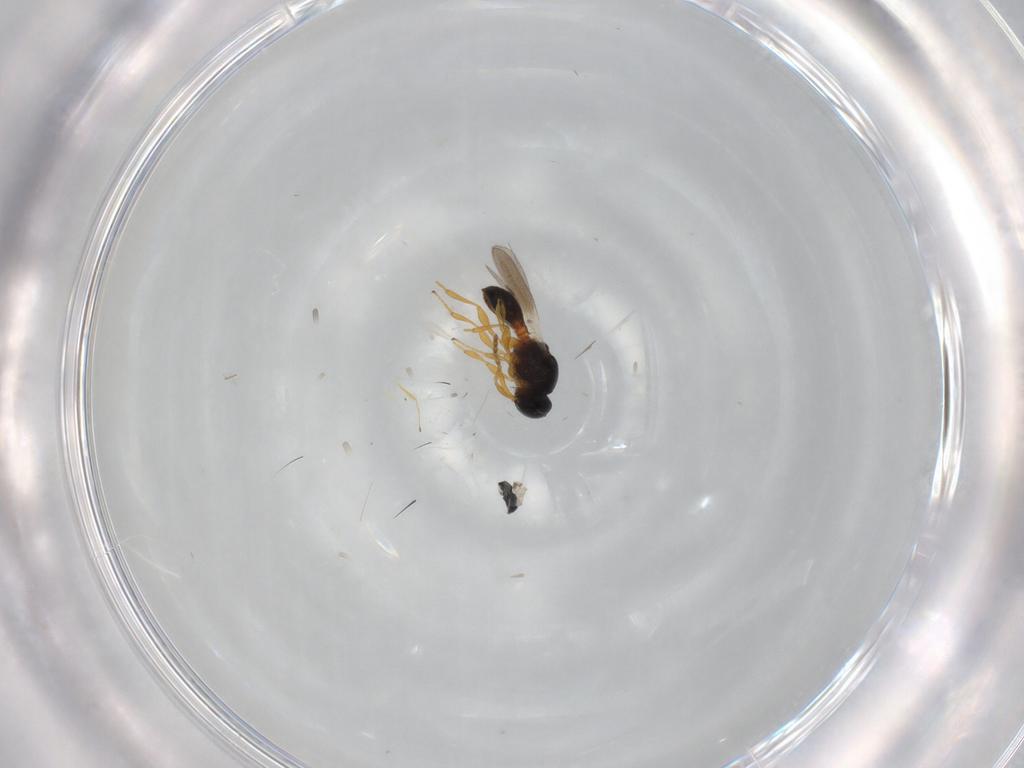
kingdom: Animalia
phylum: Arthropoda
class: Insecta
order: Hymenoptera
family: Platygastridae
